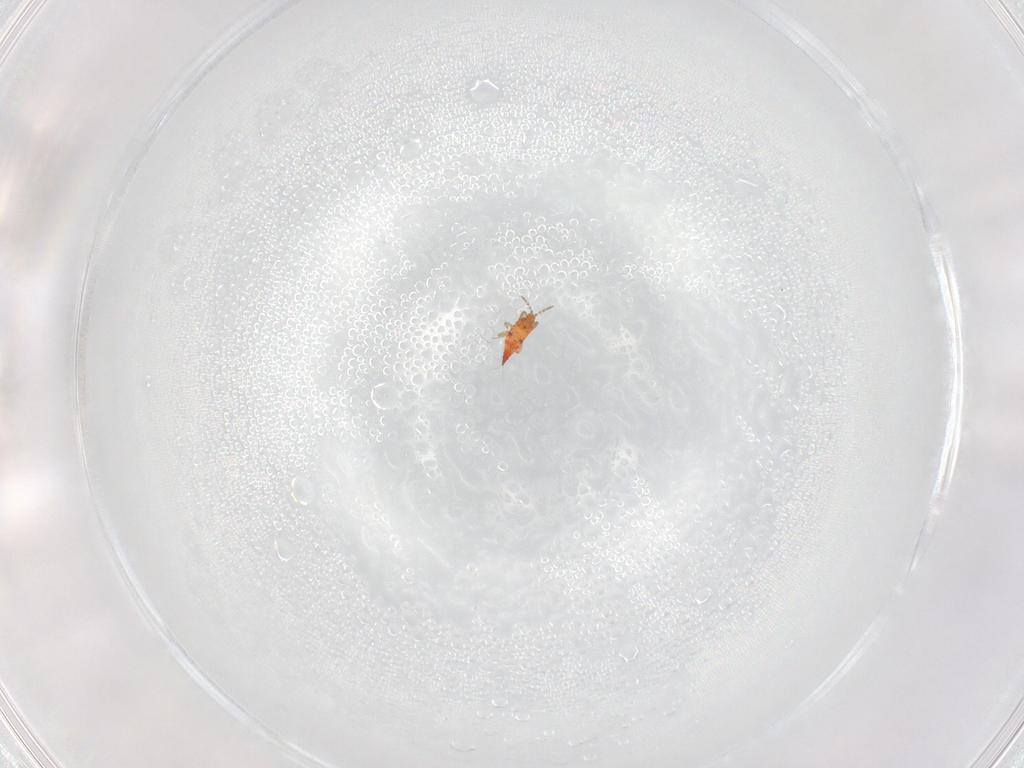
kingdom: Animalia
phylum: Arthropoda
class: Insecta
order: Thysanoptera
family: Phlaeothripidae
